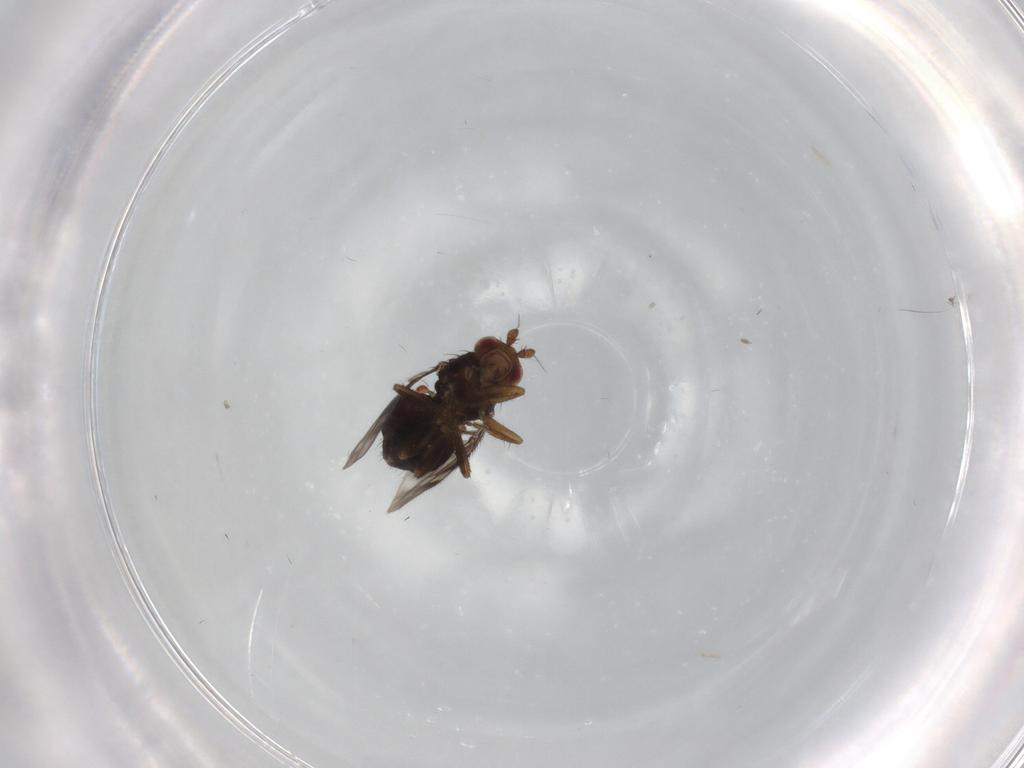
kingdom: Animalia
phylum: Arthropoda
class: Insecta
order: Diptera
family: Sphaeroceridae
